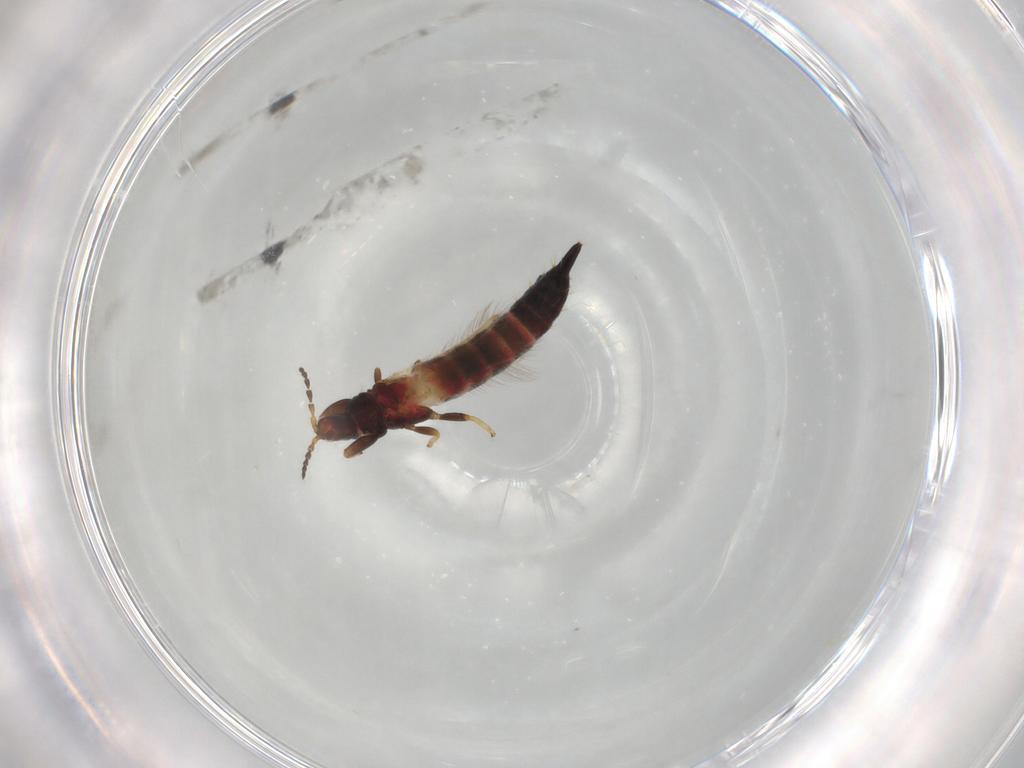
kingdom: Animalia
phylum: Arthropoda
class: Insecta
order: Thysanoptera
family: Phlaeothripidae
